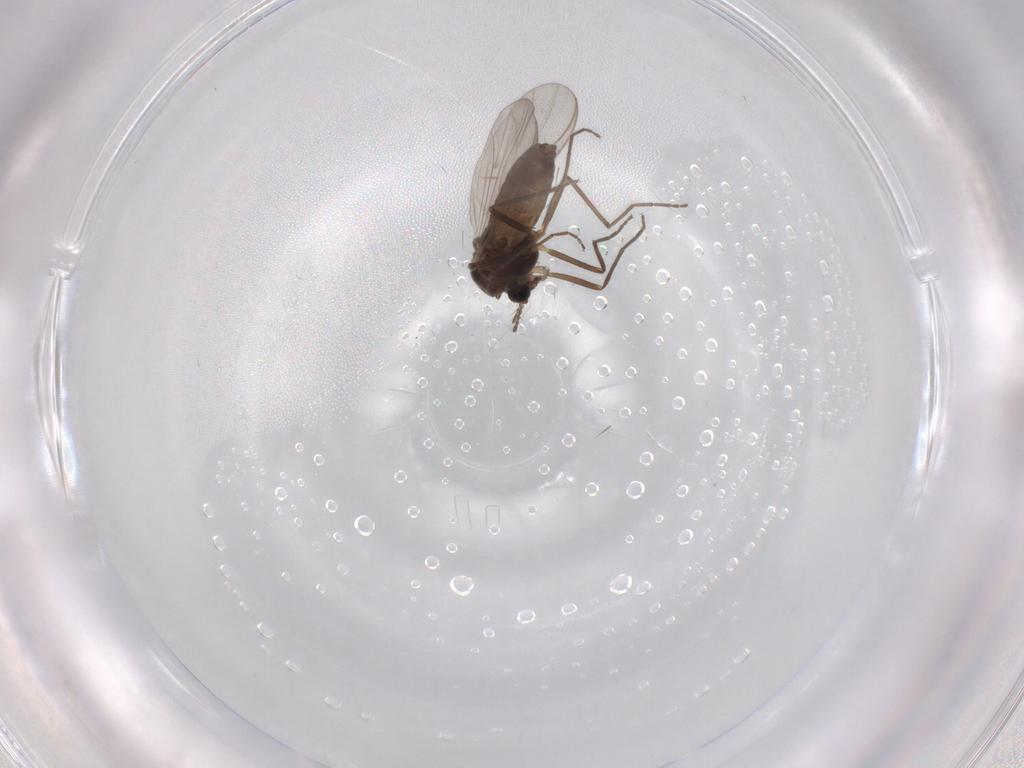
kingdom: Animalia
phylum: Arthropoda
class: Insecta
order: Diptera
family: Chironomidae
